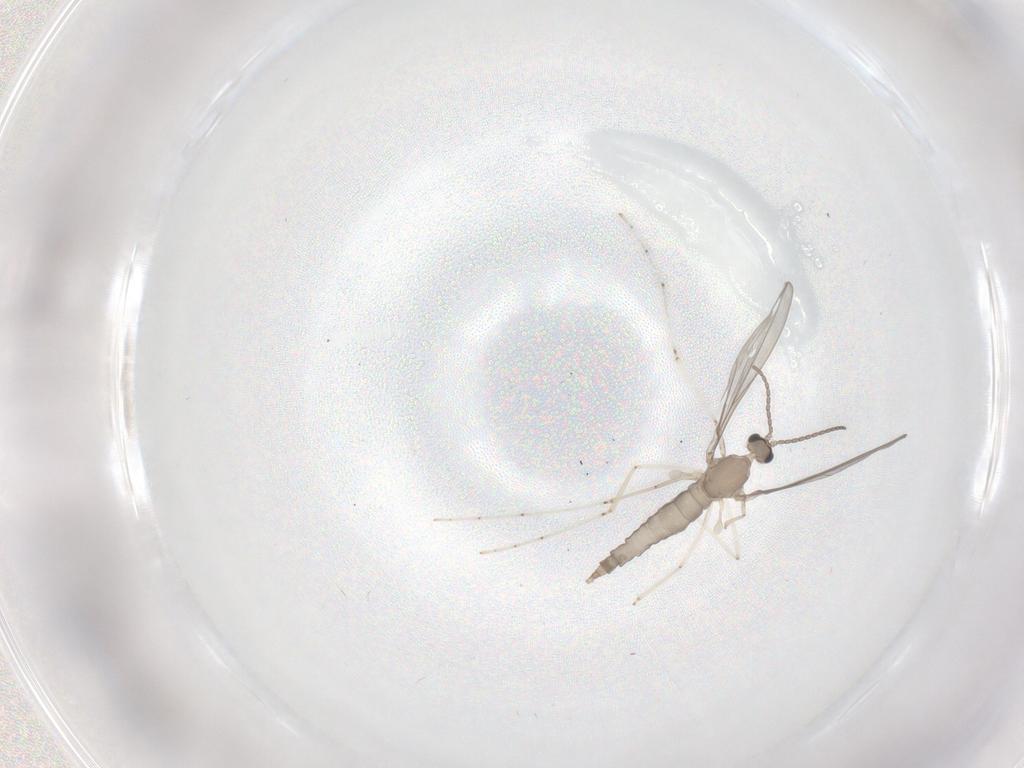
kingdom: Animalia
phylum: Arthropoda
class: Insecta
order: Diptera
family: Cecidomyiidae
